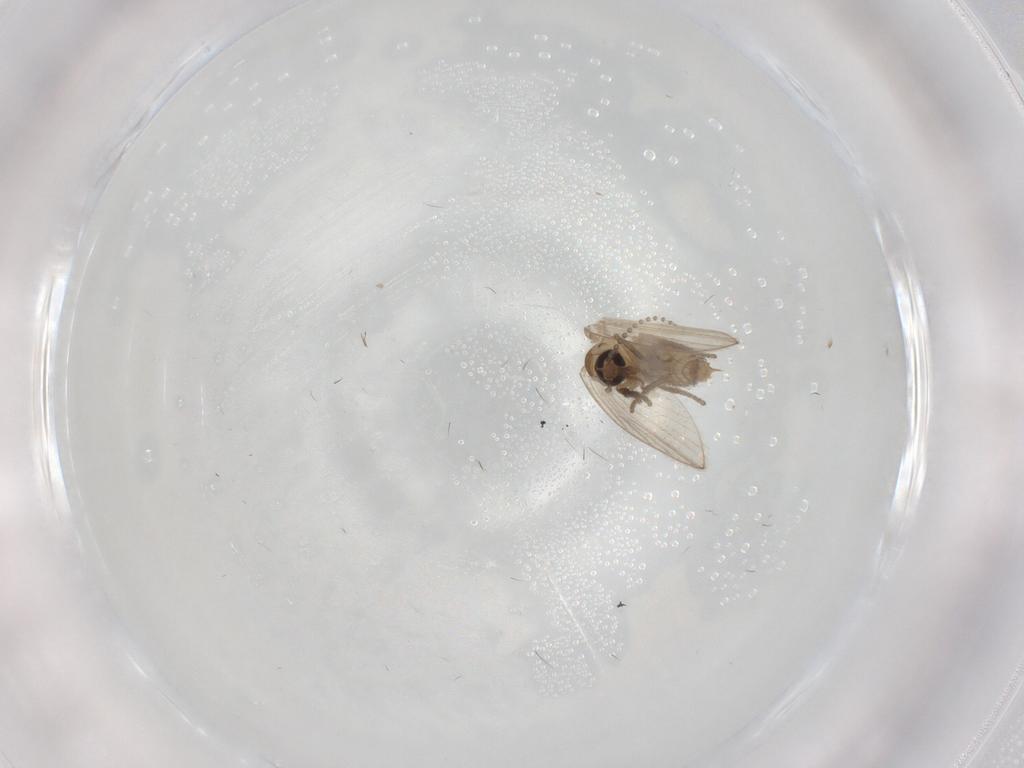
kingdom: Animalia
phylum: Arthropoda
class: Insecta
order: Diptera
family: Psychodidae
